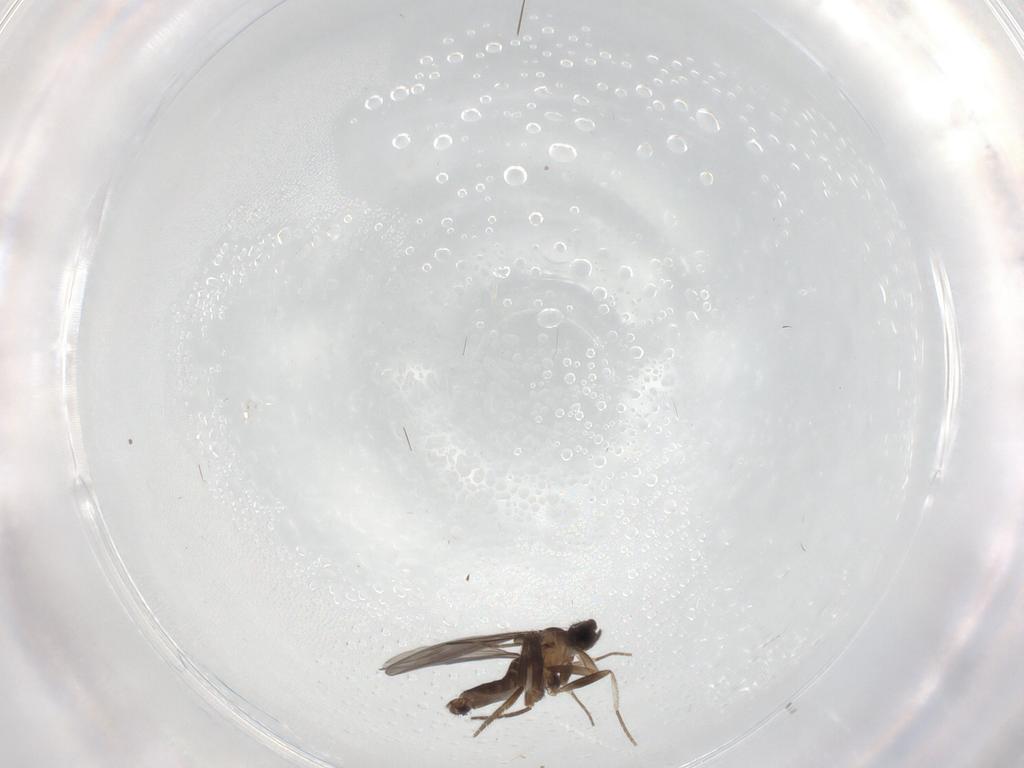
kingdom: Animalia
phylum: Arthropoda
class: Insecta
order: Diptera
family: Sciaridae
